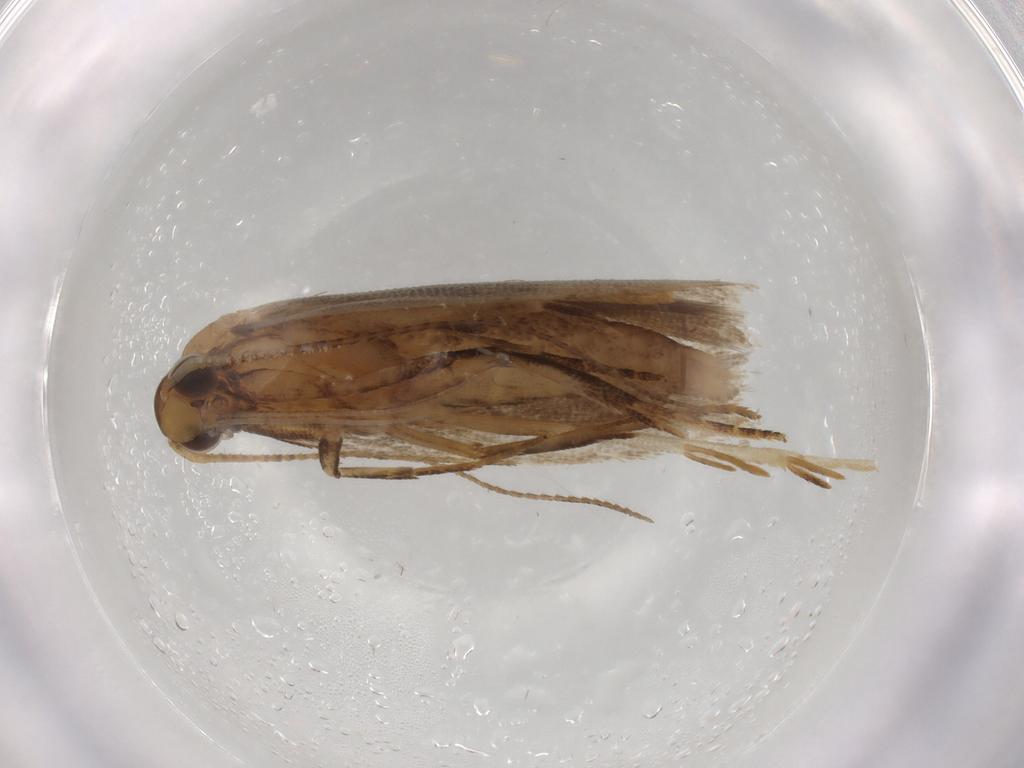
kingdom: Animalia
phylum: Arthropoda
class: Insecta
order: Lepidoptera
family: Gelechiidae
